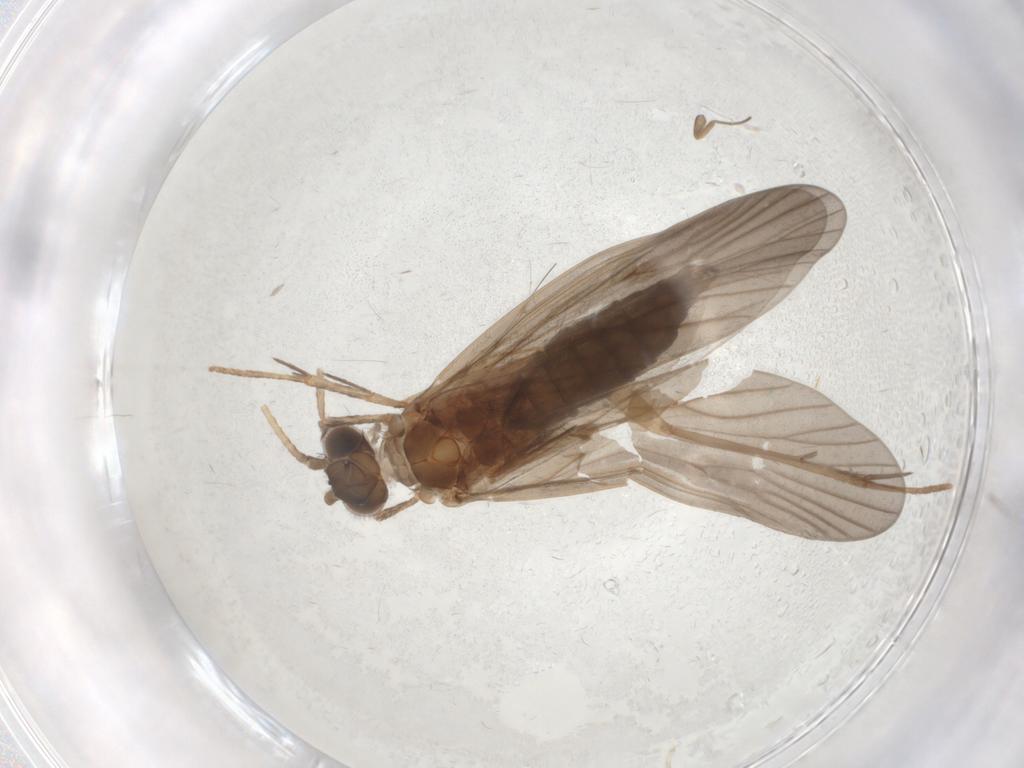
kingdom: Animalia
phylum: Arthropoda
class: Insecta
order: Trichoptera
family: Philopotamidae
